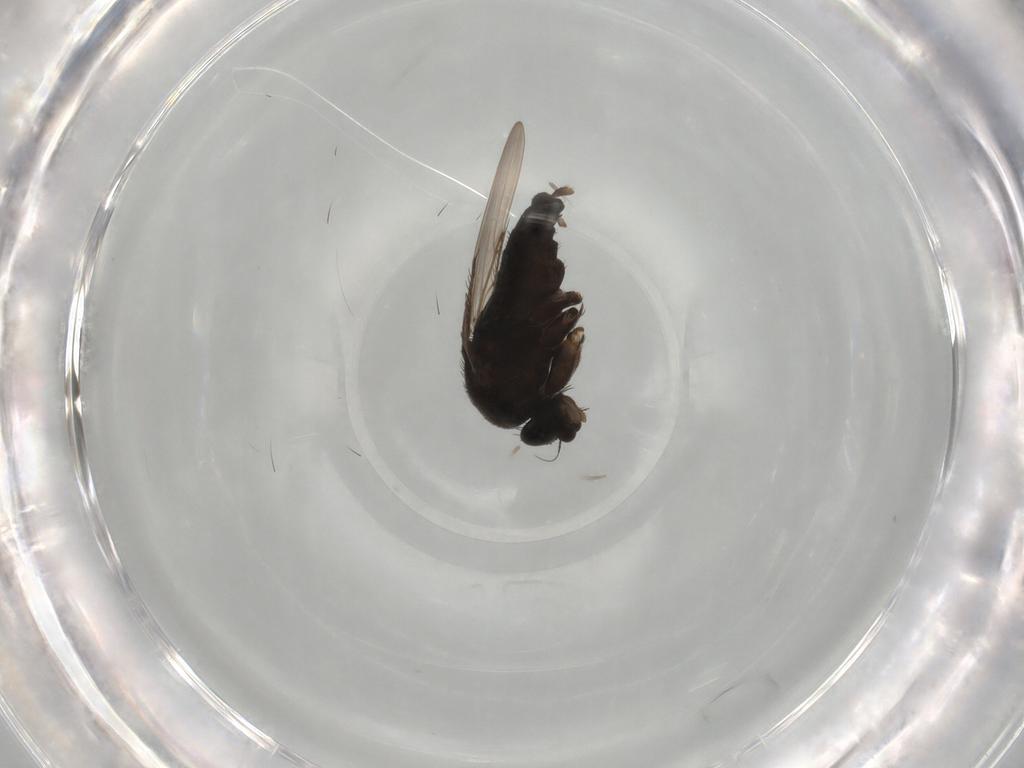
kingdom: Animalia
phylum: Arthropoda
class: Insecta
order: Diptera
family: Phoridae
